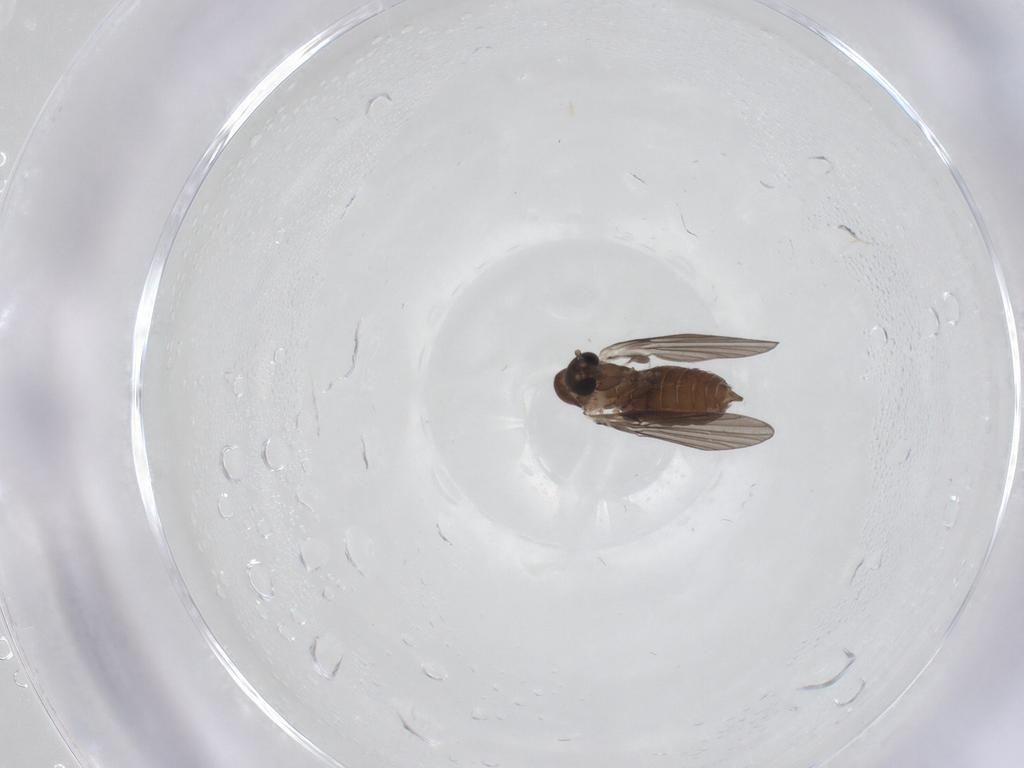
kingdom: Animalia
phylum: Arthropoda
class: Insecta
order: Diptera
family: Psychodidae
